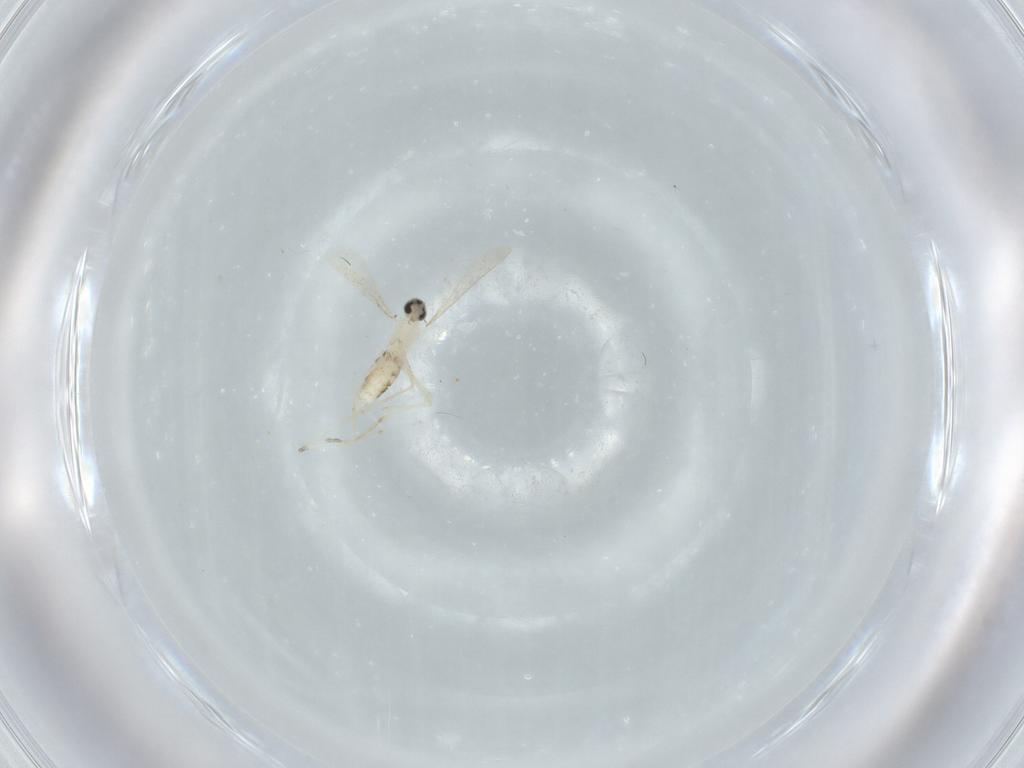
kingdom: Animalia
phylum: Arthropoda
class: Insecta
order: Diptera
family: Cecidomyiidae
